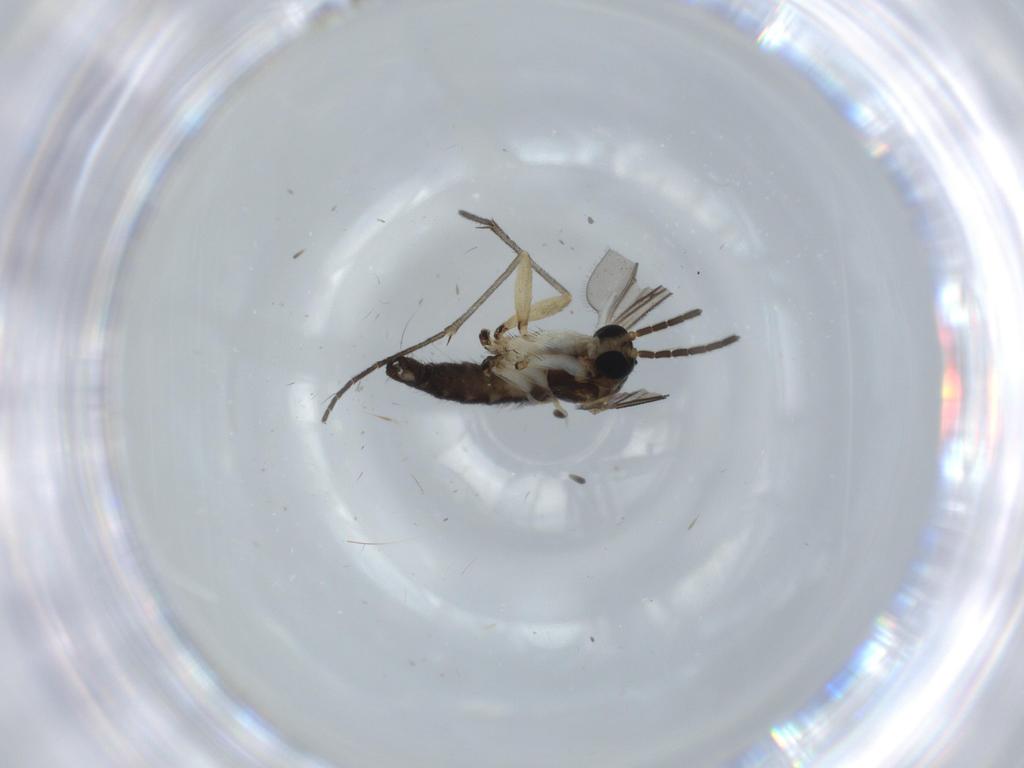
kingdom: Animalia
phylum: Arthropoda
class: Insecta
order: Diptera
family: Sciaridae
